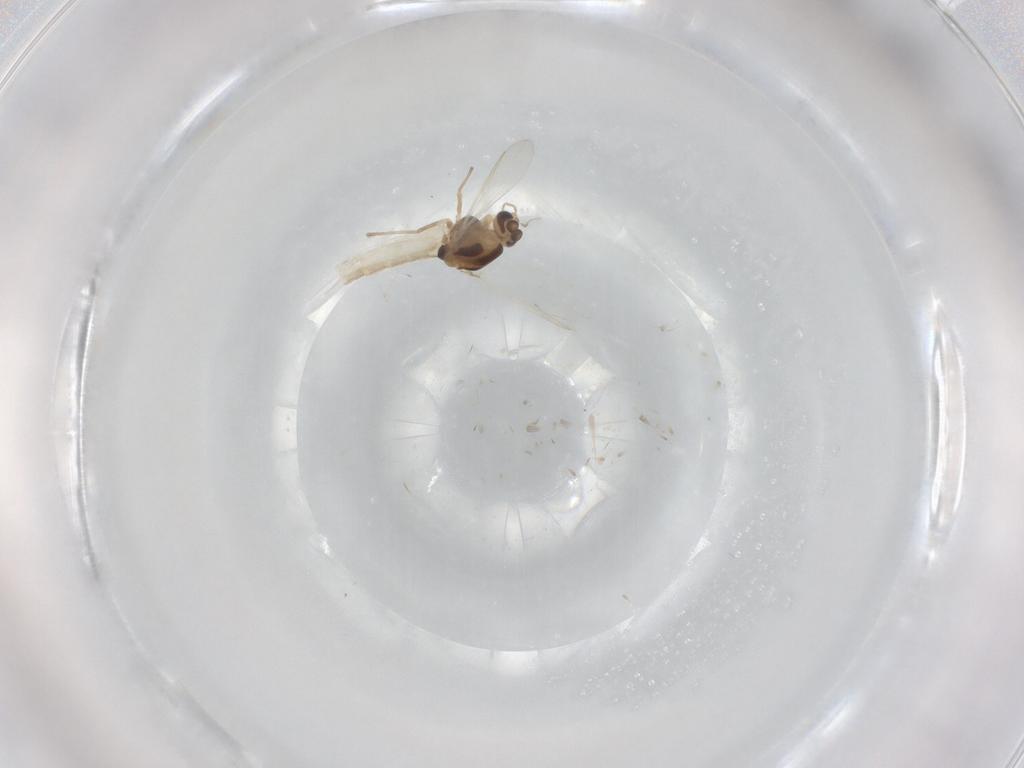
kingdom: Animalia
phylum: Arthropoda
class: Insecta
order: Diptera
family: Chironomidae
